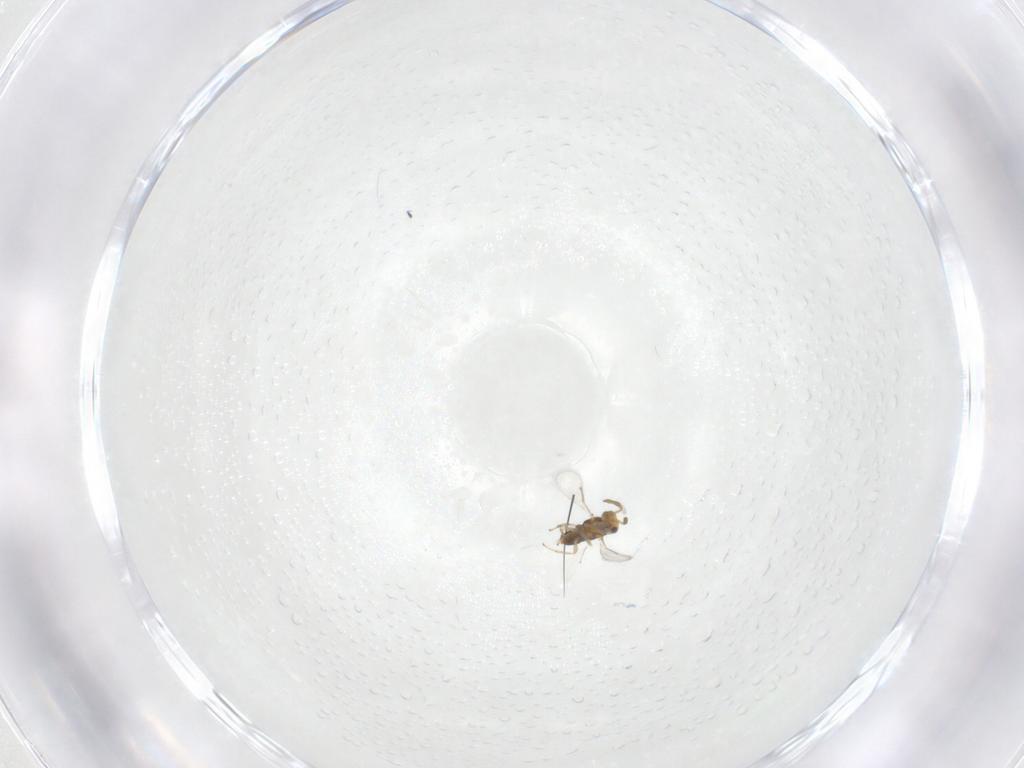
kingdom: Animalia
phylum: Arthropoda
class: Insecta
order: Hymenoptera
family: Aphelinidae
